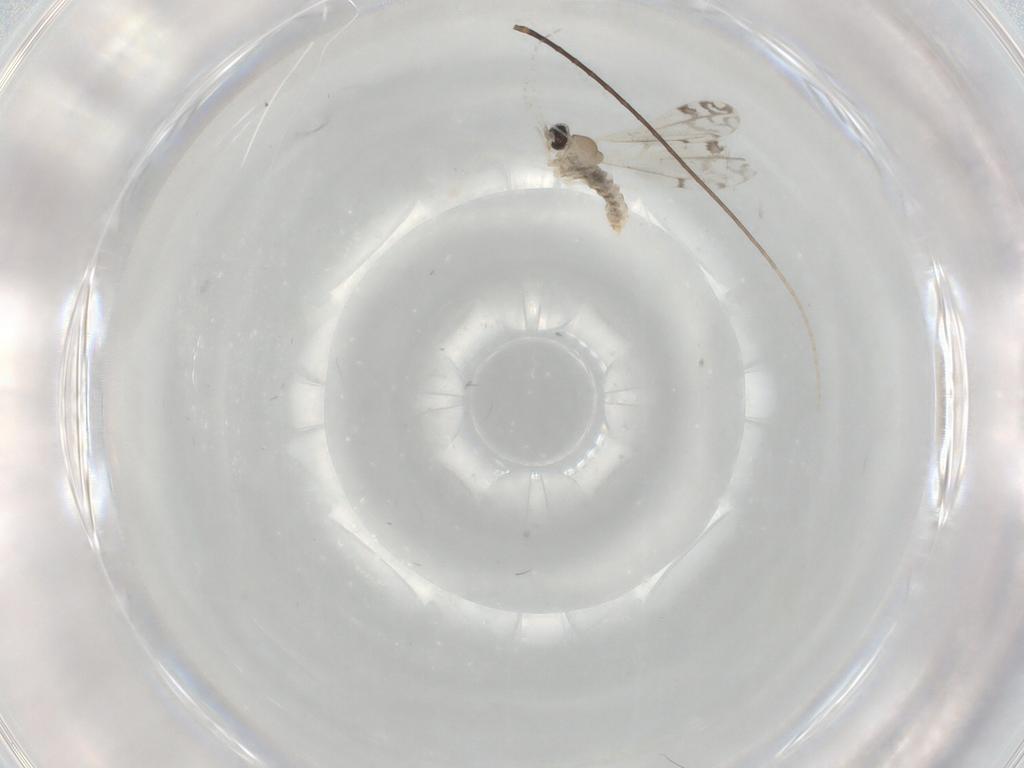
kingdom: Animalia
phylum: Arthropoda
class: Insecta
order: Diptera
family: Cecidomyiidae
